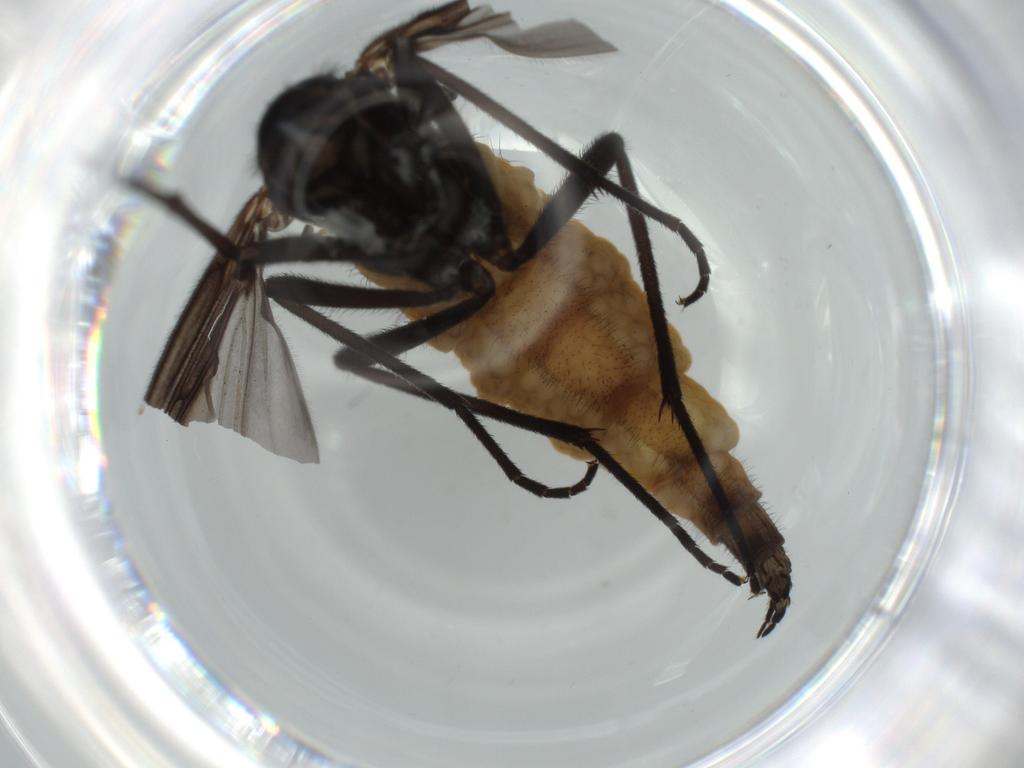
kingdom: Animalia
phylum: Arthropoda
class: Insecta
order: Diptera
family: Sciaridae
